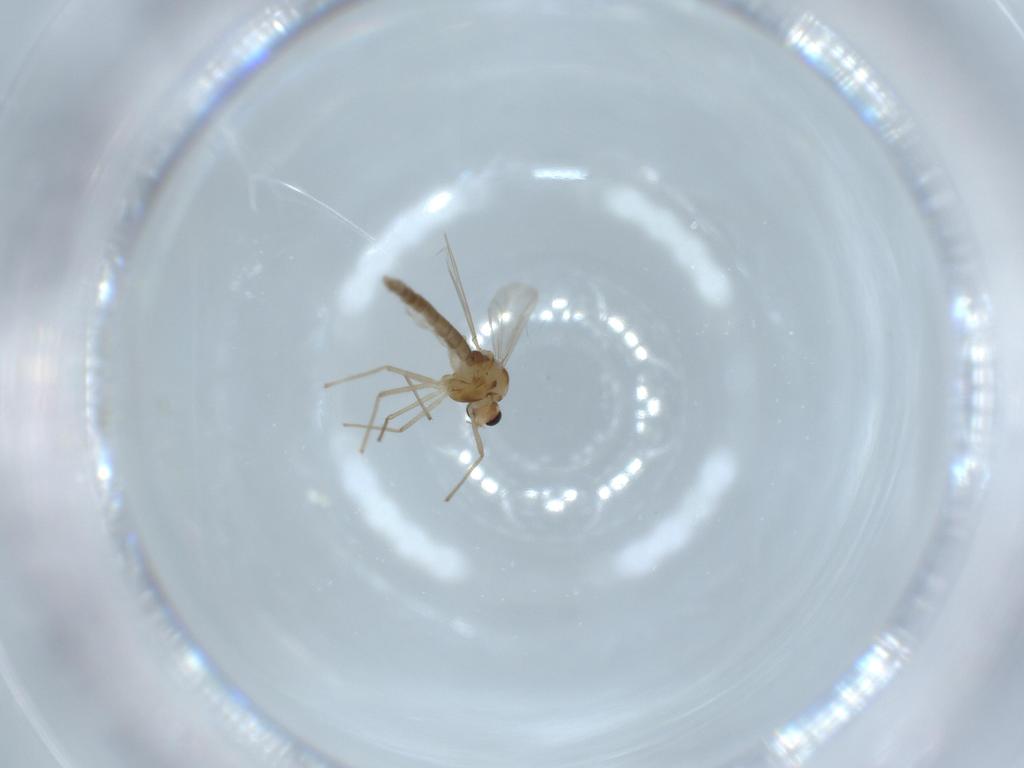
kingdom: Animalia
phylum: Arthropoda
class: Insecta
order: Diptera
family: Chironomidae
